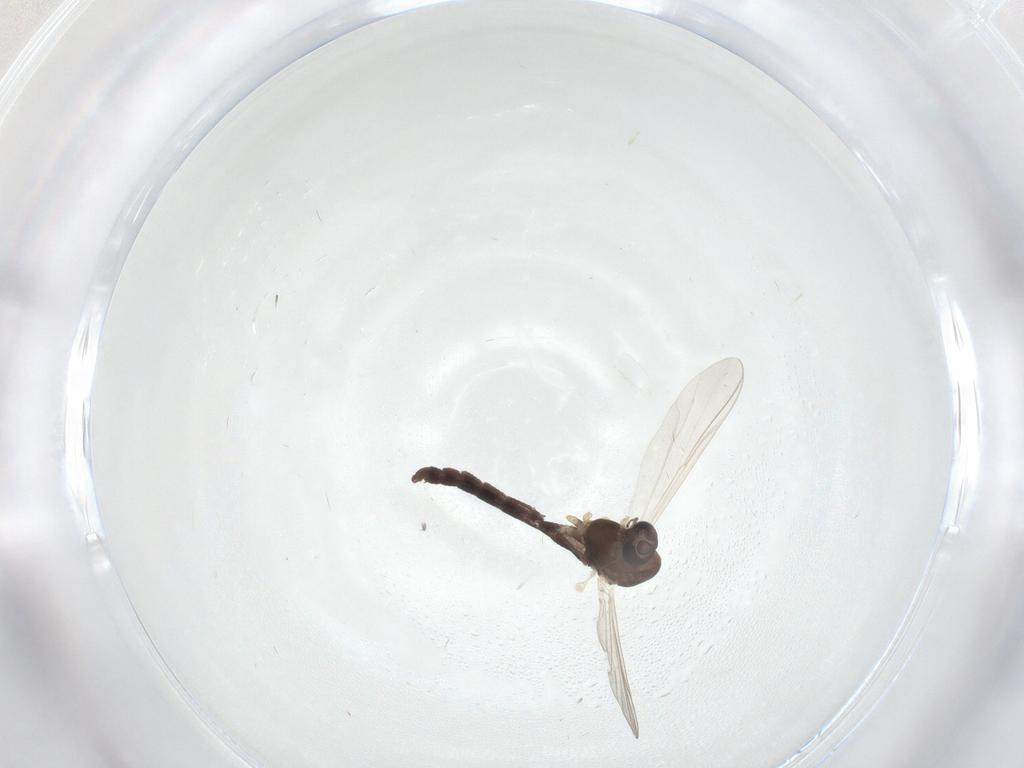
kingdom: Animalia
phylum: Arthropoda
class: Insecta
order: Diptera
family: Chironomidae
